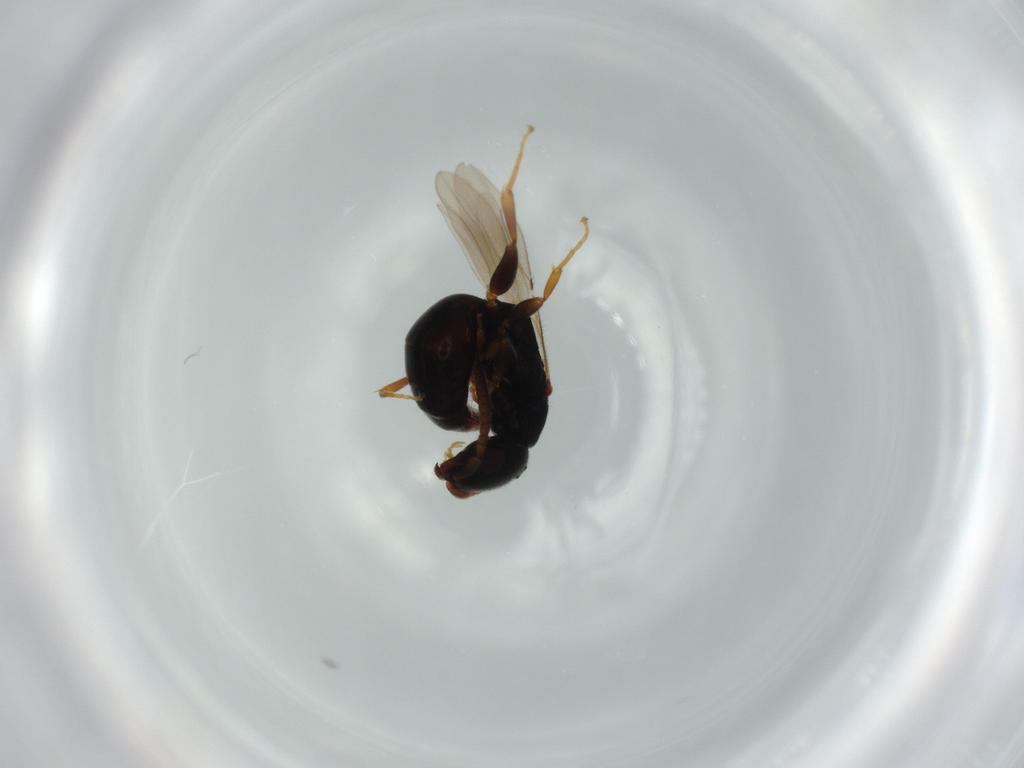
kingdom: Animalia
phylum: Arthropoda
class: Insecta
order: Hymenoptera
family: Bethylidae
